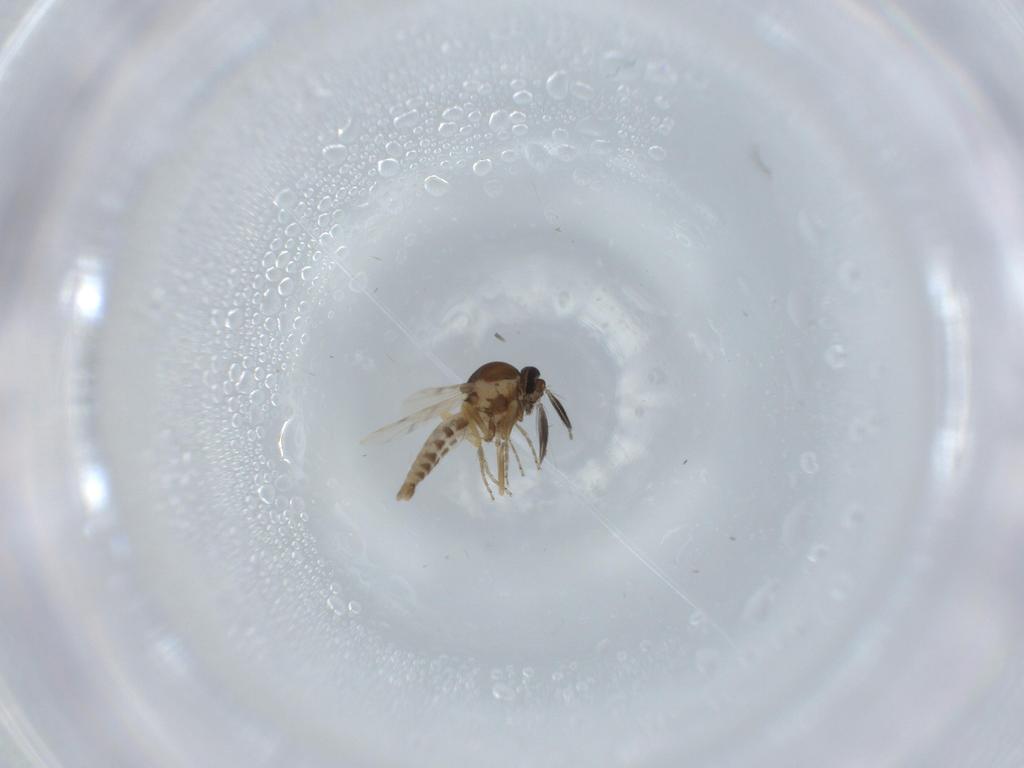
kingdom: Animalia
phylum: Arthropoda
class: Insecta
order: Diptera
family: Ceratopogonidae
